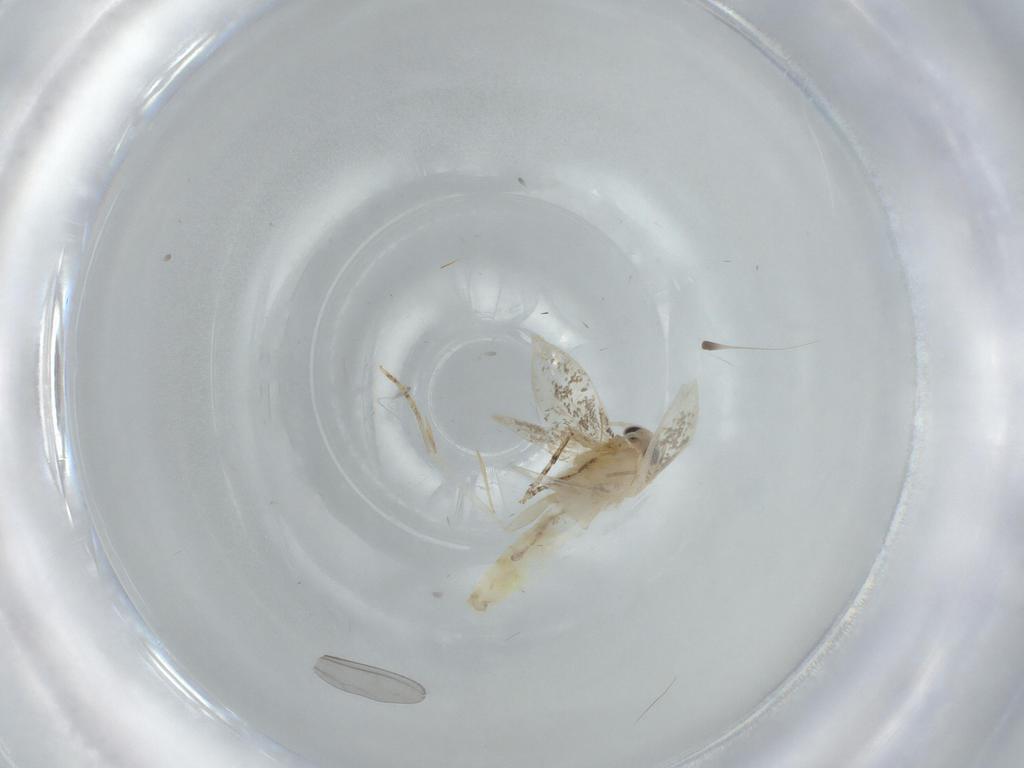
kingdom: Animalia
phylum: Arthropoda
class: Insecta
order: Lepidoptera
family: Bucculatricidae
